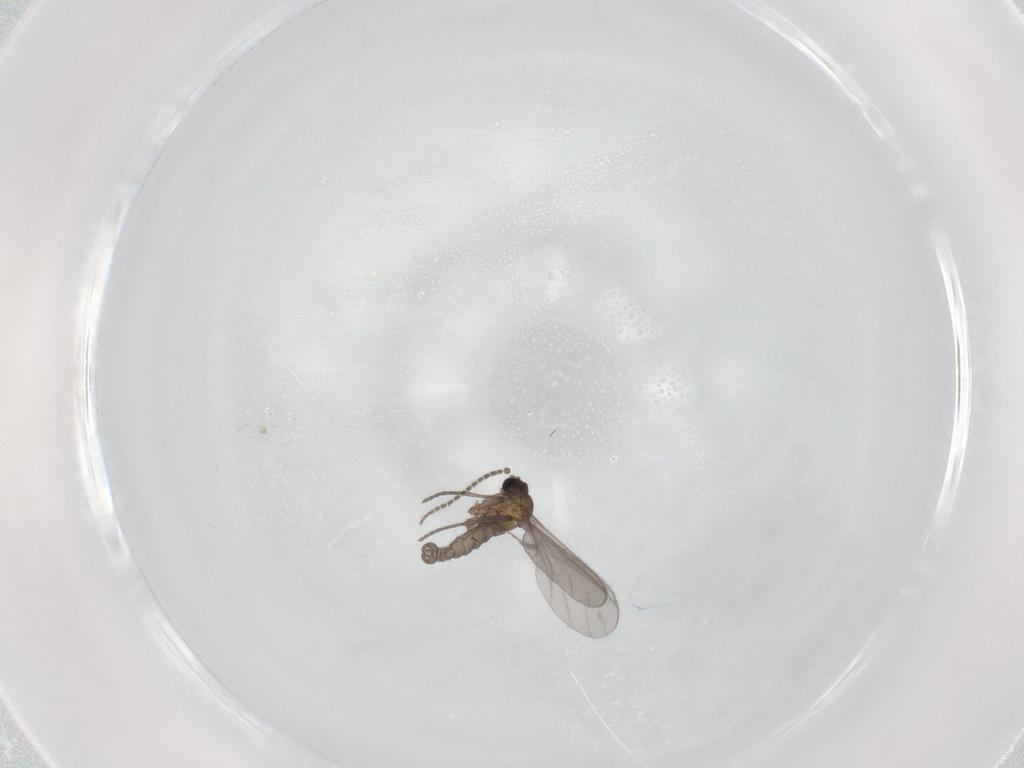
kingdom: Animalia
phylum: Arthropoda
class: Insecta
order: Diptera
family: Sciaridae
